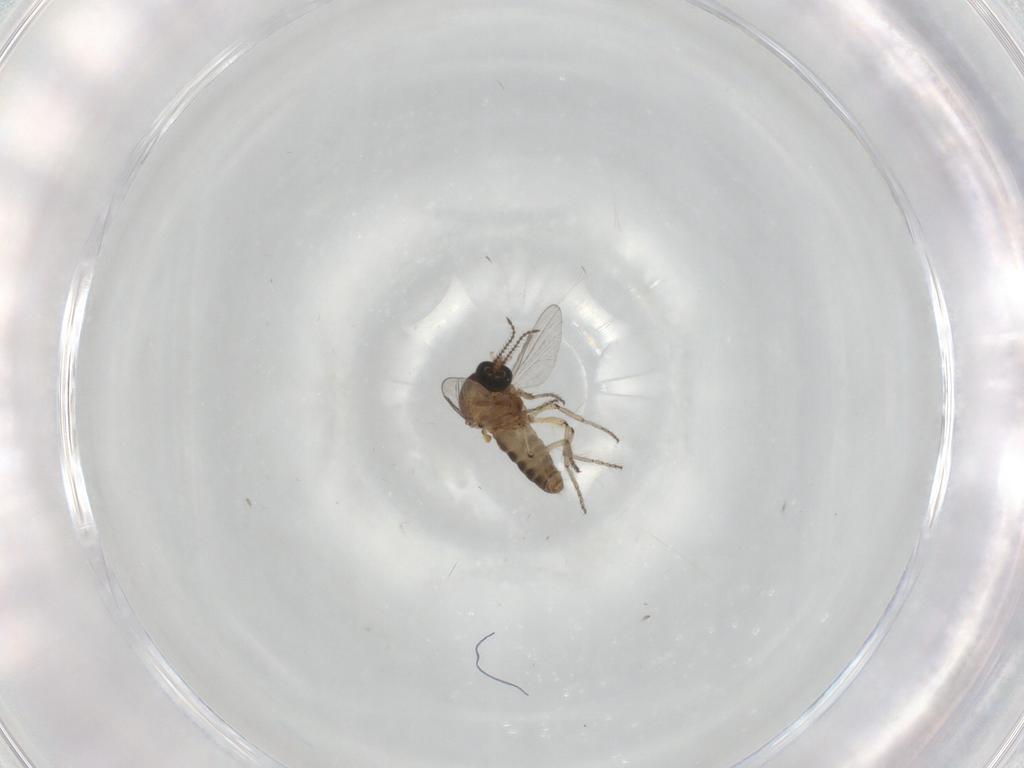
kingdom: Animalia
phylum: Arthropoda
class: Insecta
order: Diptera
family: Ceratopogonidae
